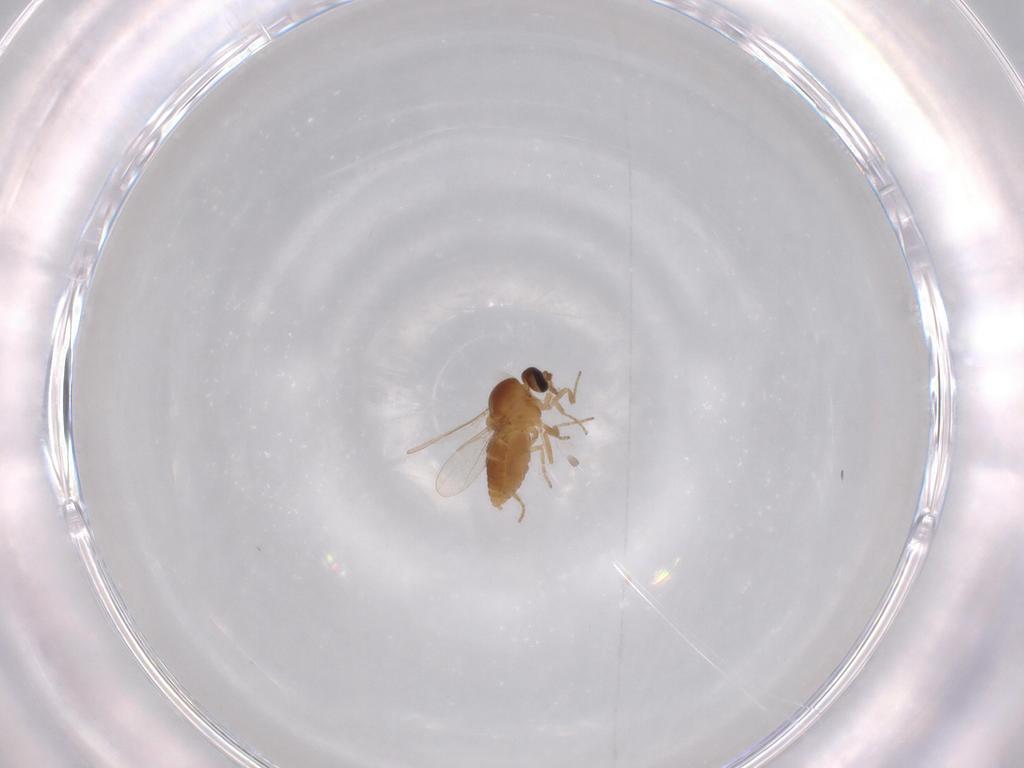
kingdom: Animalia
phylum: Arthropoda
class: Insecta
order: Diptera
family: Ceratopogonidae
